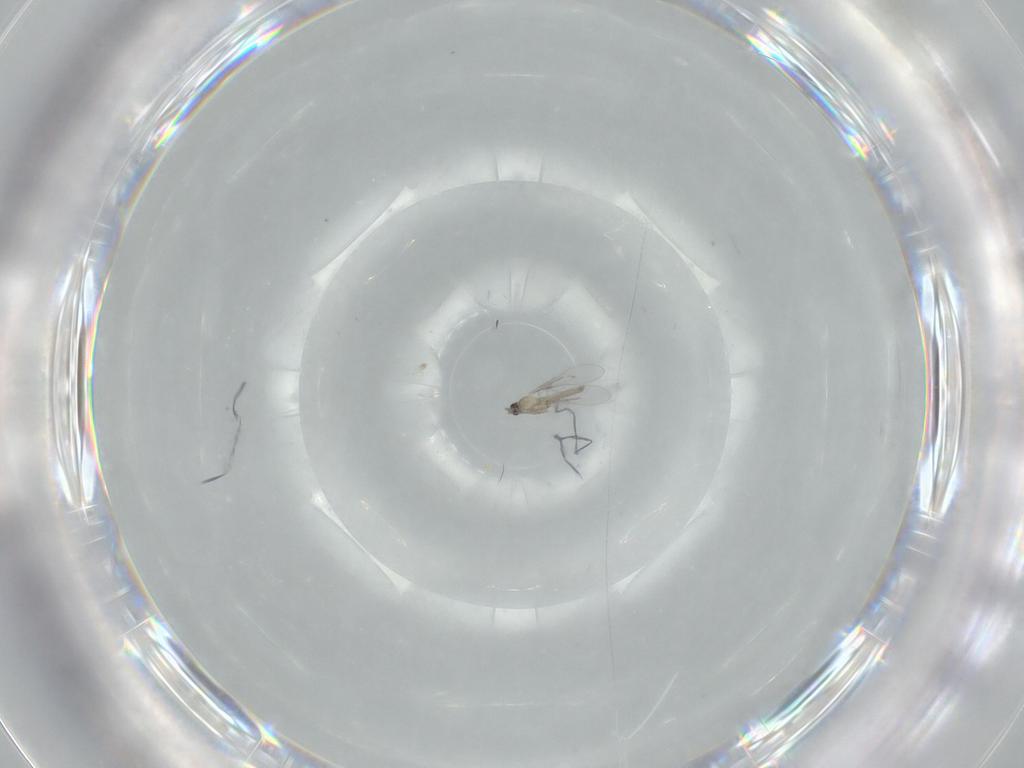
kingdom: Animalia
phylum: Arthropoda
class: Insecta
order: Diptera
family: Cecidomyiidae
